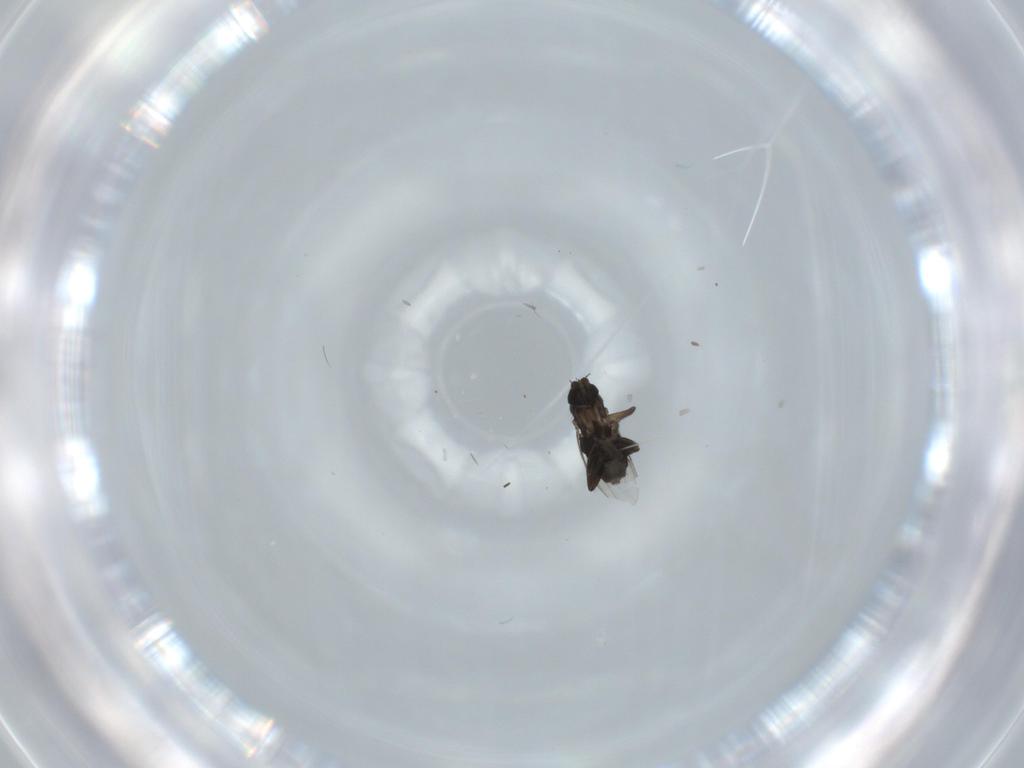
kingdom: Animalia
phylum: Arthropoda
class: Insecta
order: Diptera
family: Phoridae
